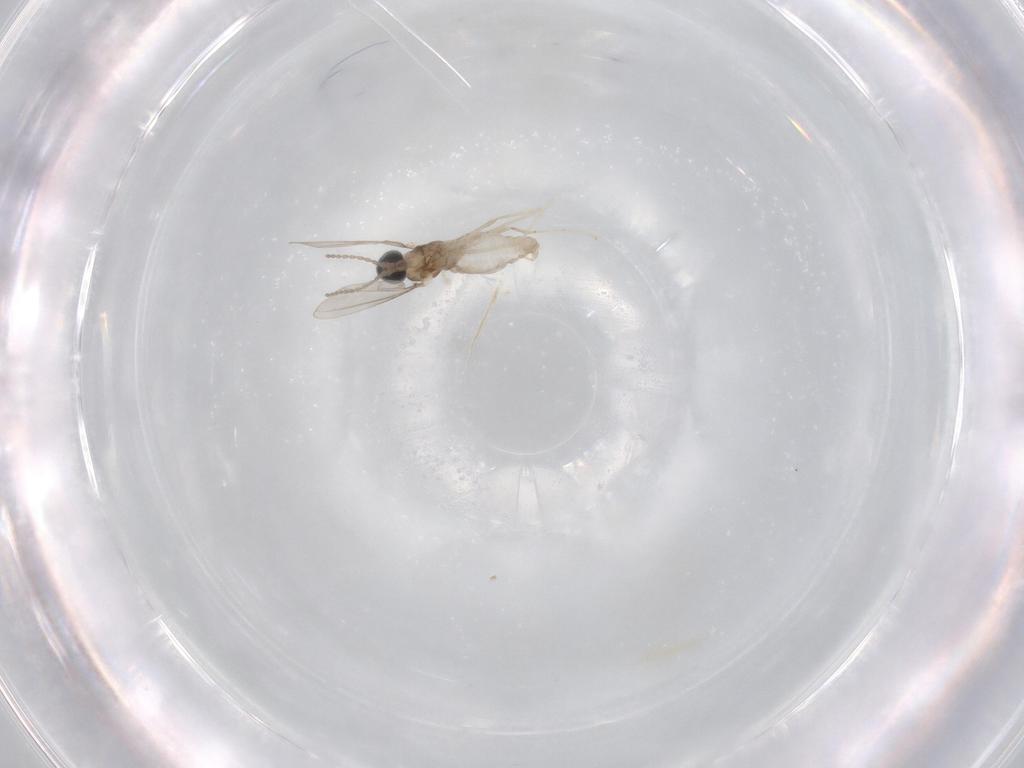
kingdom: Animalia
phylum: Arthropoda
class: Insecta
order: Diptera
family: Cecidomyiidae
